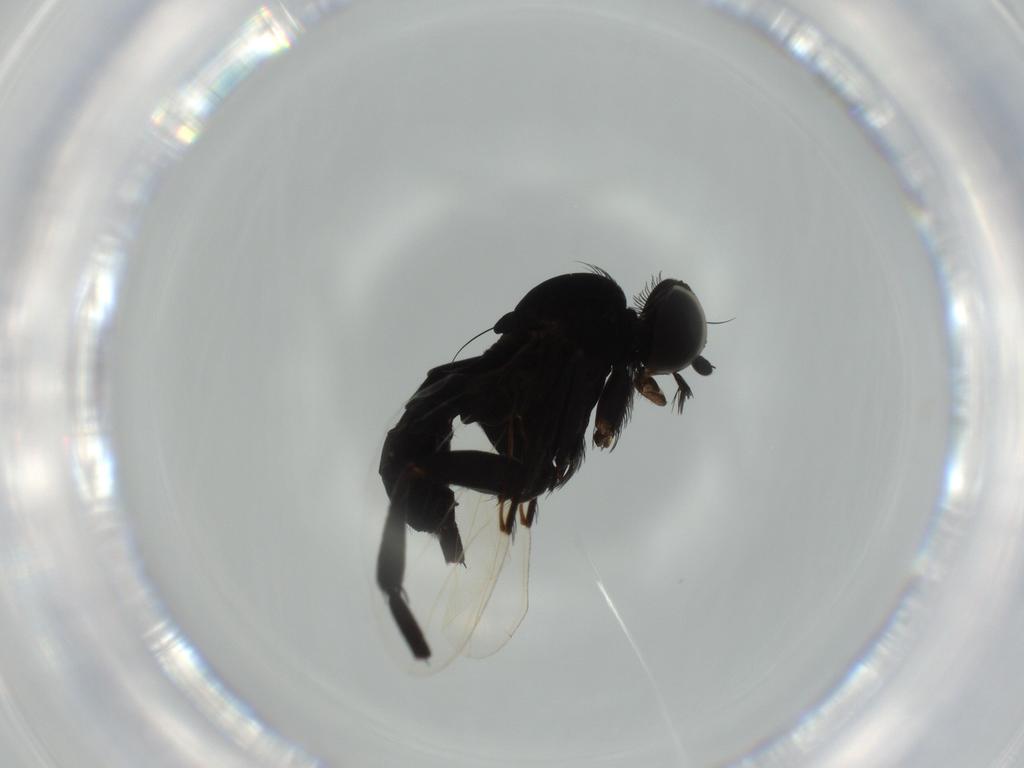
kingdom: Animalia
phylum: Arthropoda
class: Insecta
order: Diptera
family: Muscidae
